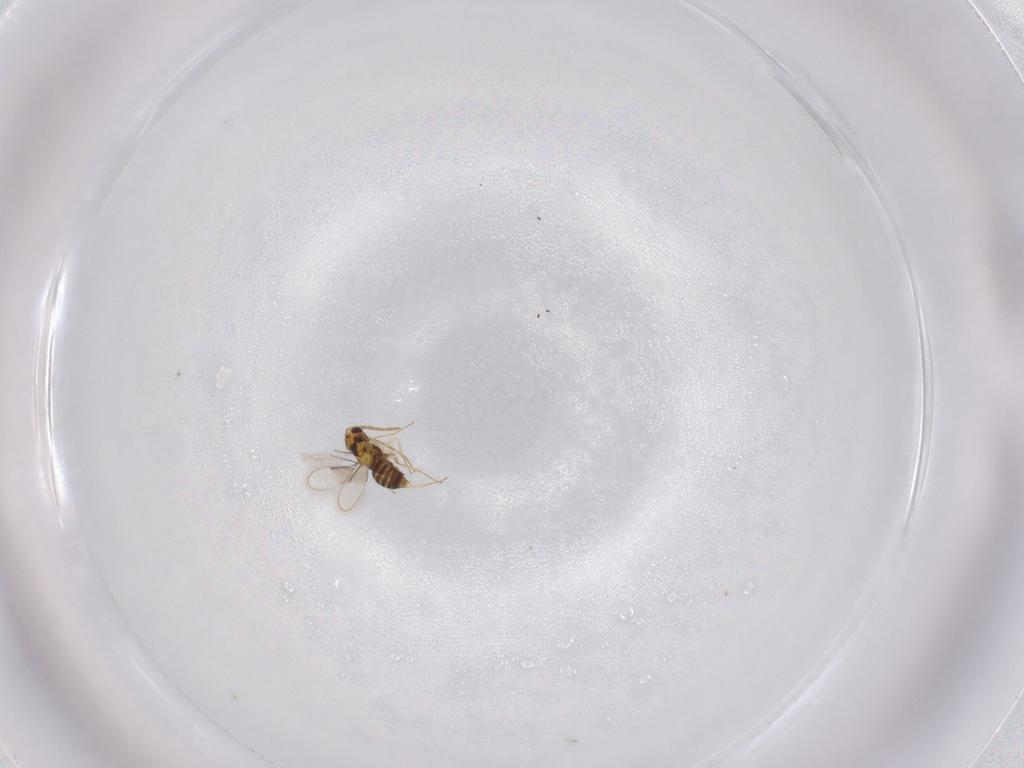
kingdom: Animalia
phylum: Arthropoda
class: Insecta
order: Hymenoptera
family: Aphelinidae
